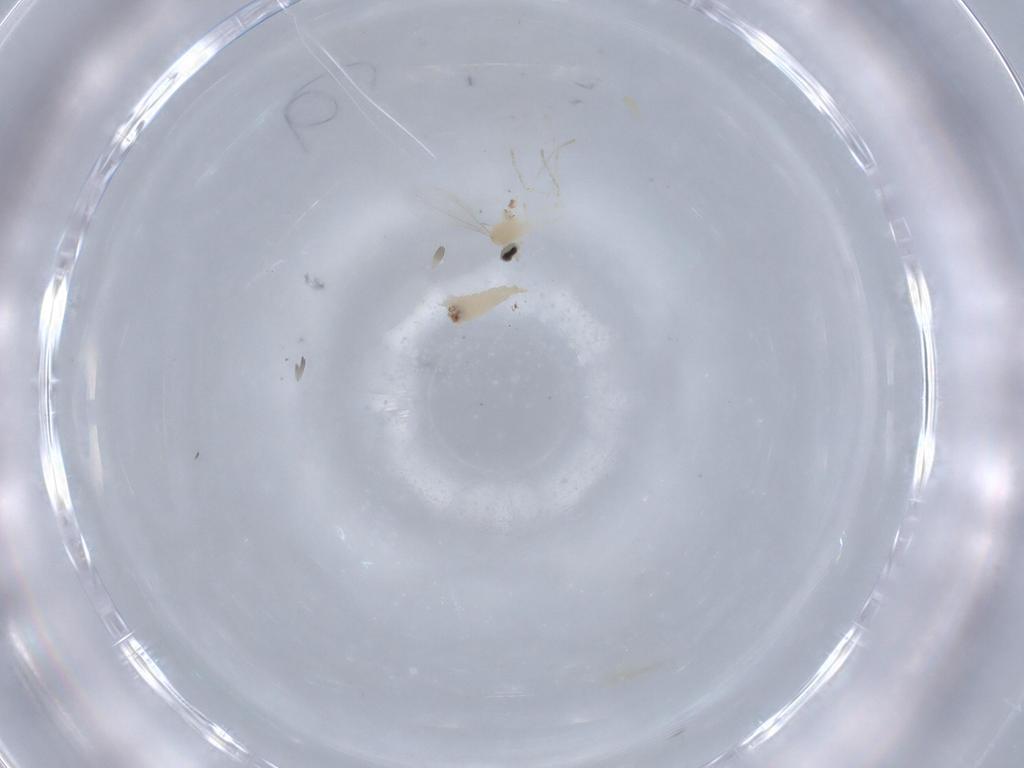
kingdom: Animalia
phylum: Arthropoda
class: Insecta
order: Diptera
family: Cecidomyiidae
